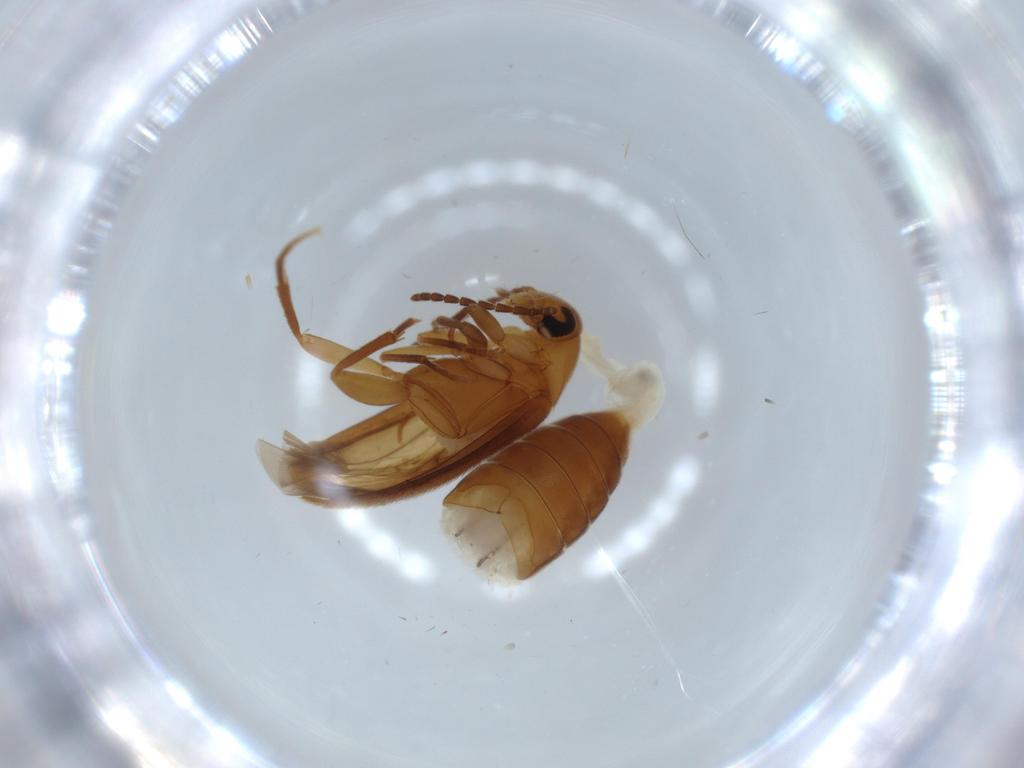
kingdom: Animalia
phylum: Arthropoda
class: Insecta
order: Coleoptera
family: Scraptiidae
